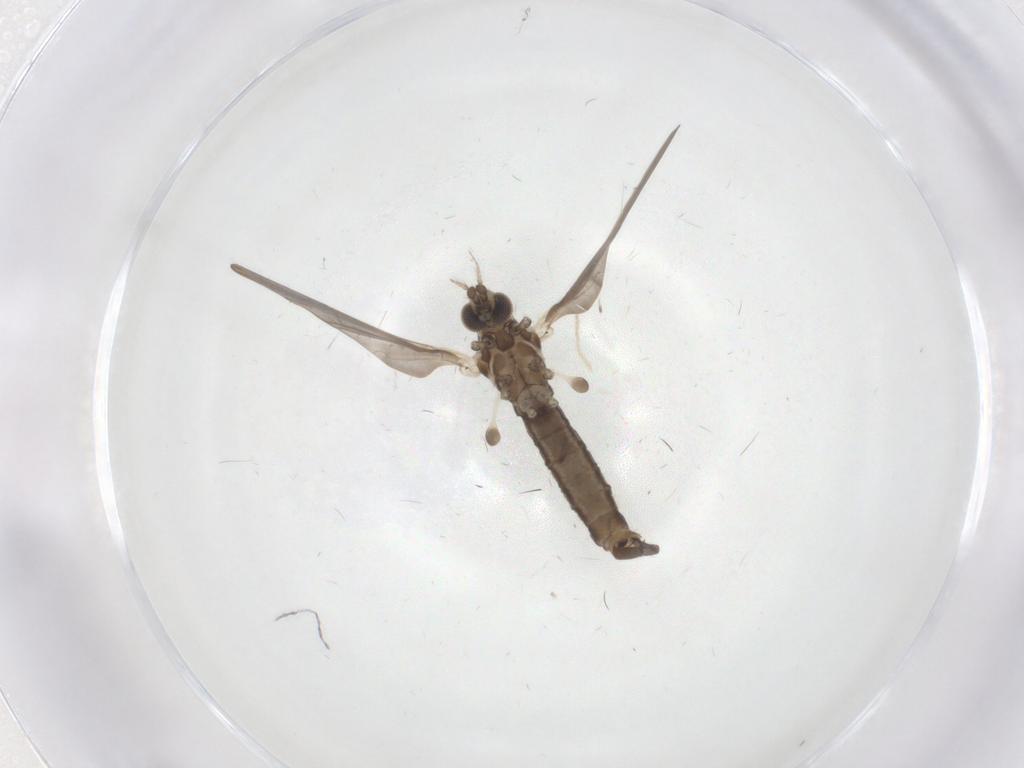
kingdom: Animalia
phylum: Arthropoda
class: Insecta
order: Diptera
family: Limoniidae
